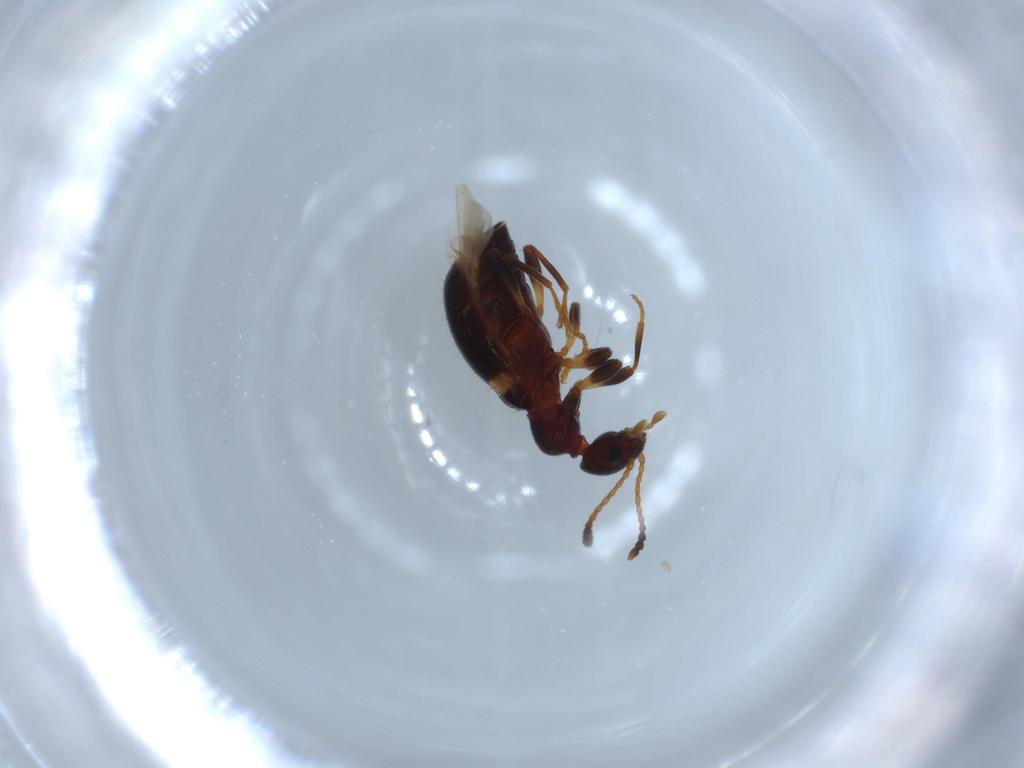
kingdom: Animalia
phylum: Arthropoda
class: Insecta
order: Coleoptera
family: Anthicidae
